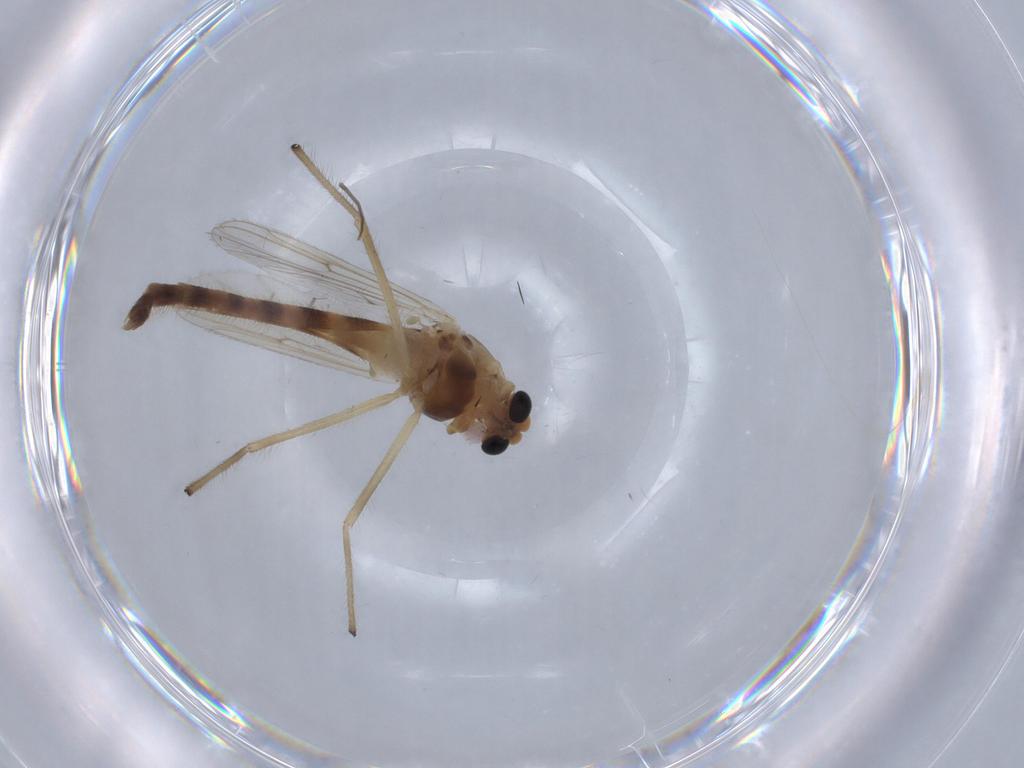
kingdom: Animalia
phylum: Arthropoda
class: Insecta
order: Diptera
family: Chironomidae
